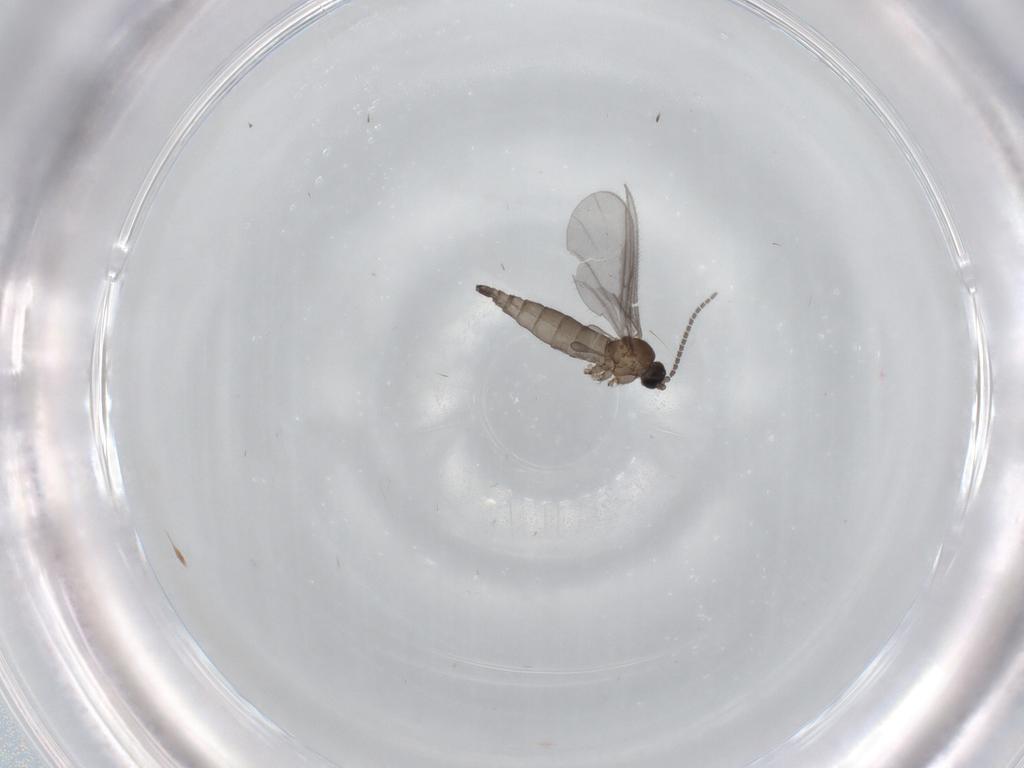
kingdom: Animalia
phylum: Arthropoda
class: Insecta
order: Diptera
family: Sciaridae
